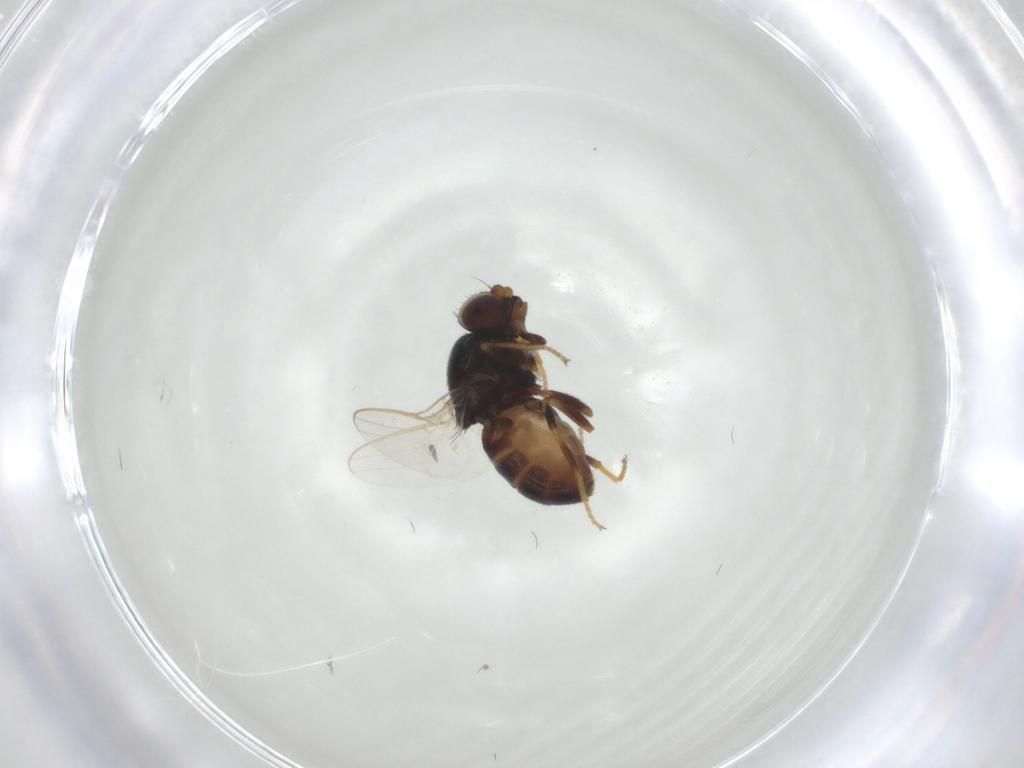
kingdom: Animalia
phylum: Arthropoda
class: Insecta
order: Diptera
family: Chloropidae
